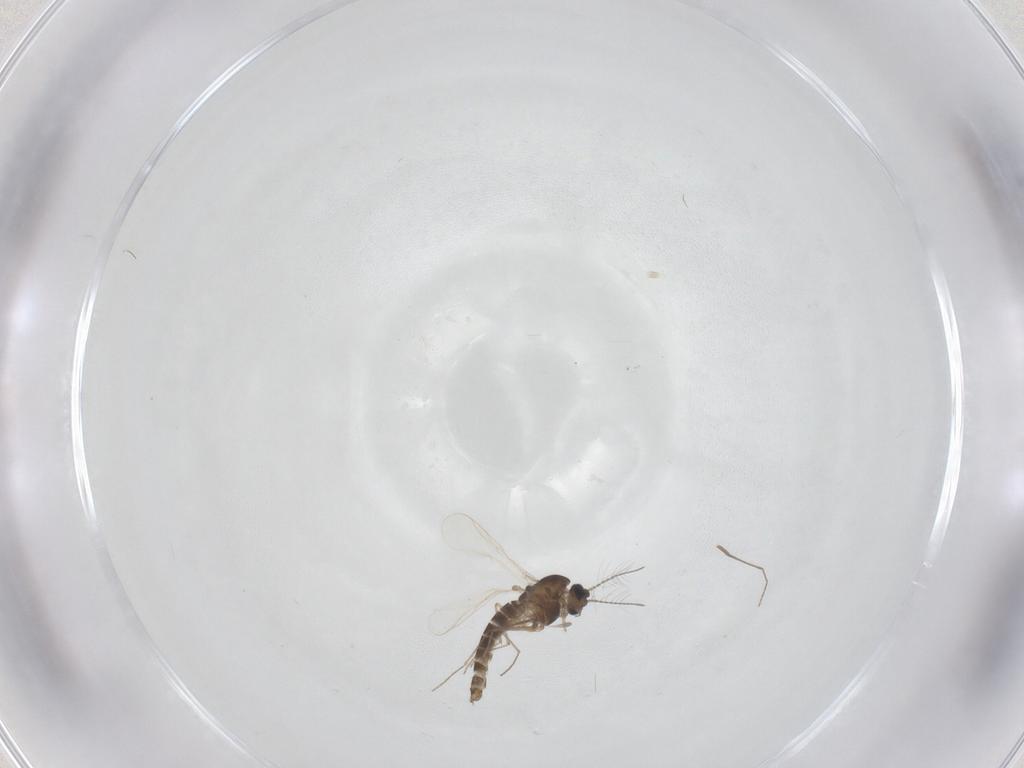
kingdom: Animalia
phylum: Arthropoda
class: Insecta
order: Diptera
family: Chironomidae
